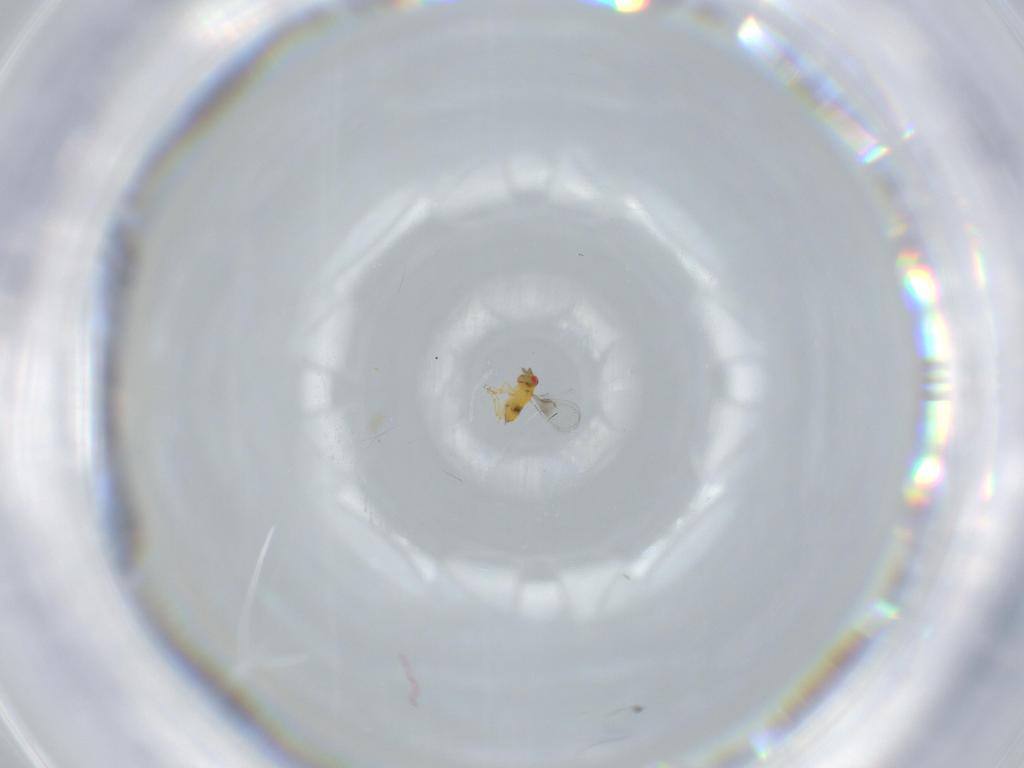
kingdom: Animalia
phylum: Arthropoda
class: Insecta
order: Hymenoptera
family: Trichogrammatidae
